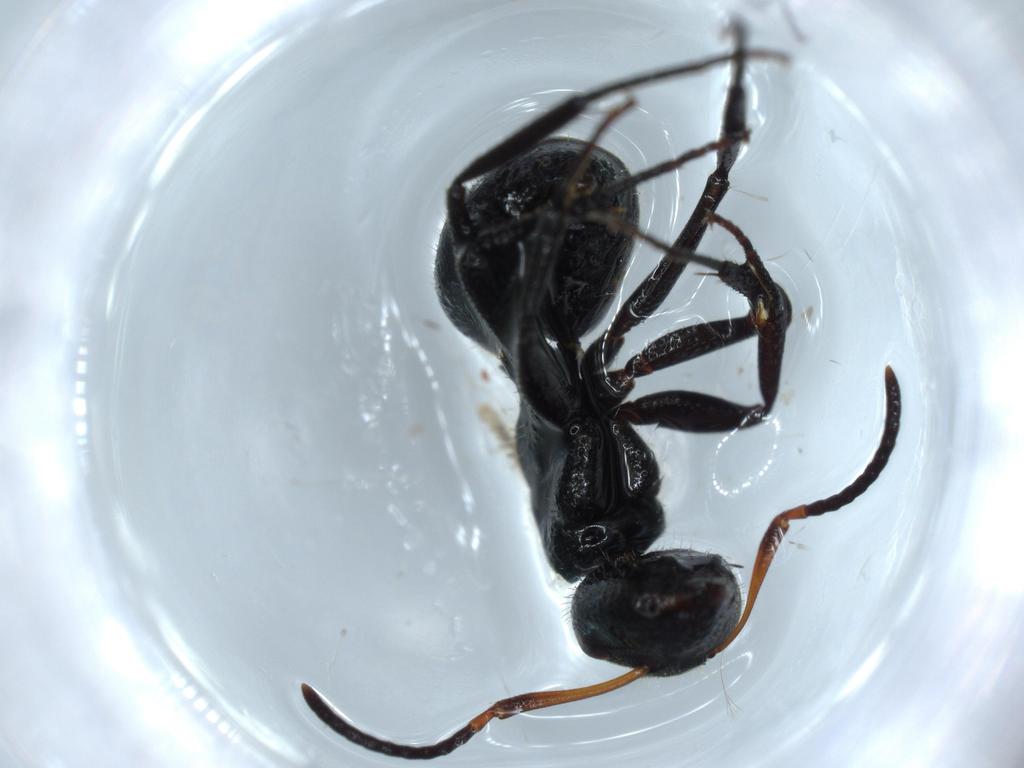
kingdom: Animalia
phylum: Arthropoda
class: Insecta
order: Hymenoptera
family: Formicidae
